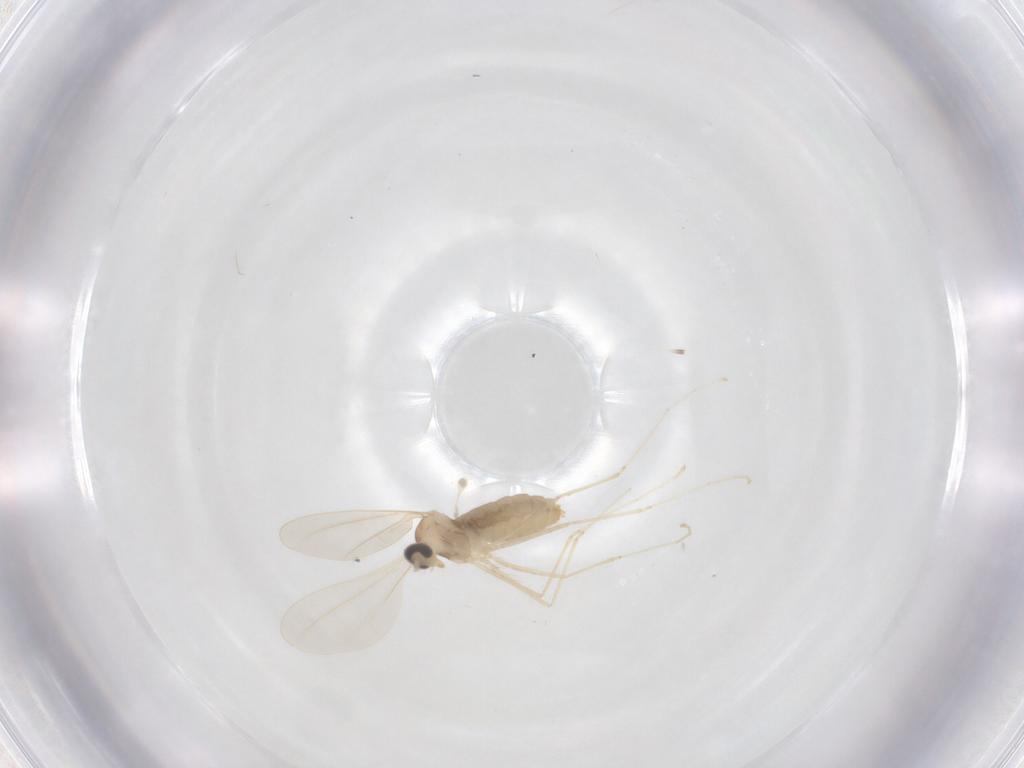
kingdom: Animalia
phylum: Arthropoda
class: Insecta
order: Diptera
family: Cecidomyiidae
